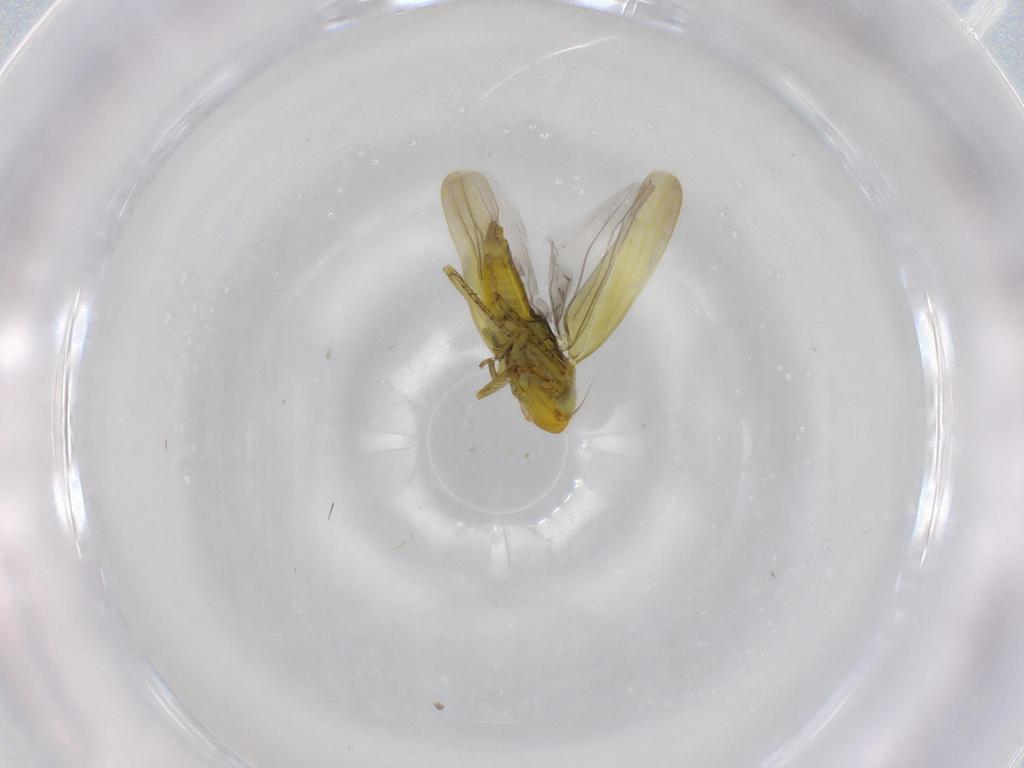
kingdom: Animalia
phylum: Arthropoda
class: Insecta
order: Hemiptera
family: Cicadellidae
